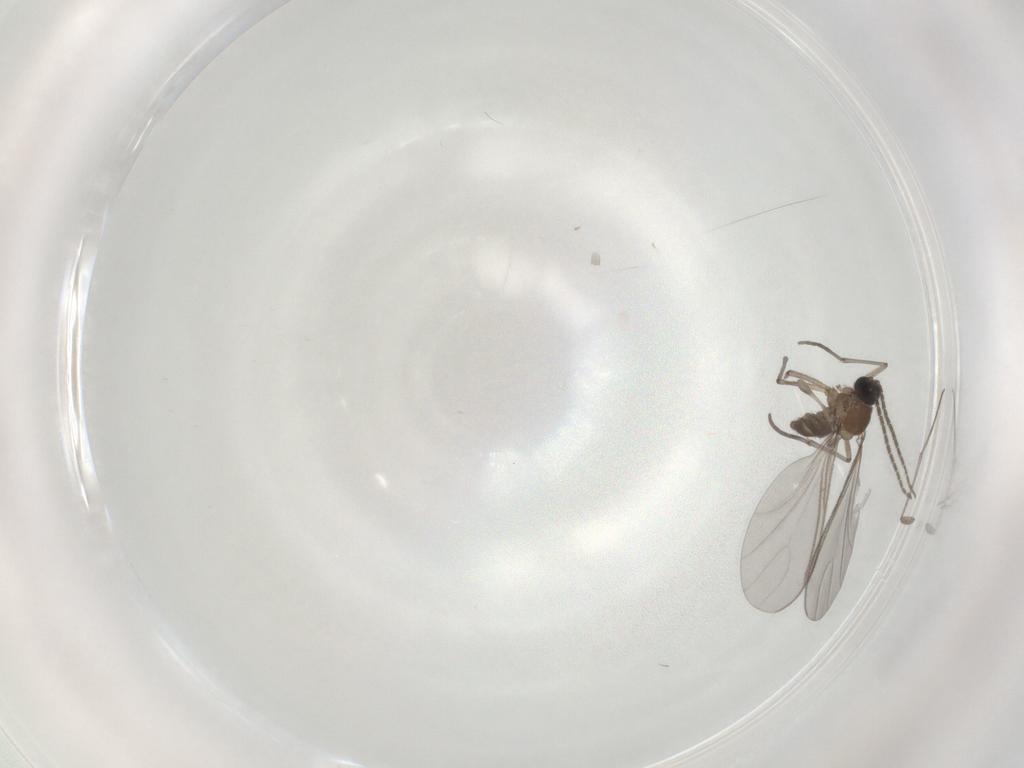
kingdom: Animalia
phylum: Arthropoda
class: Insecta
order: Diptera
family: Sciaridae
